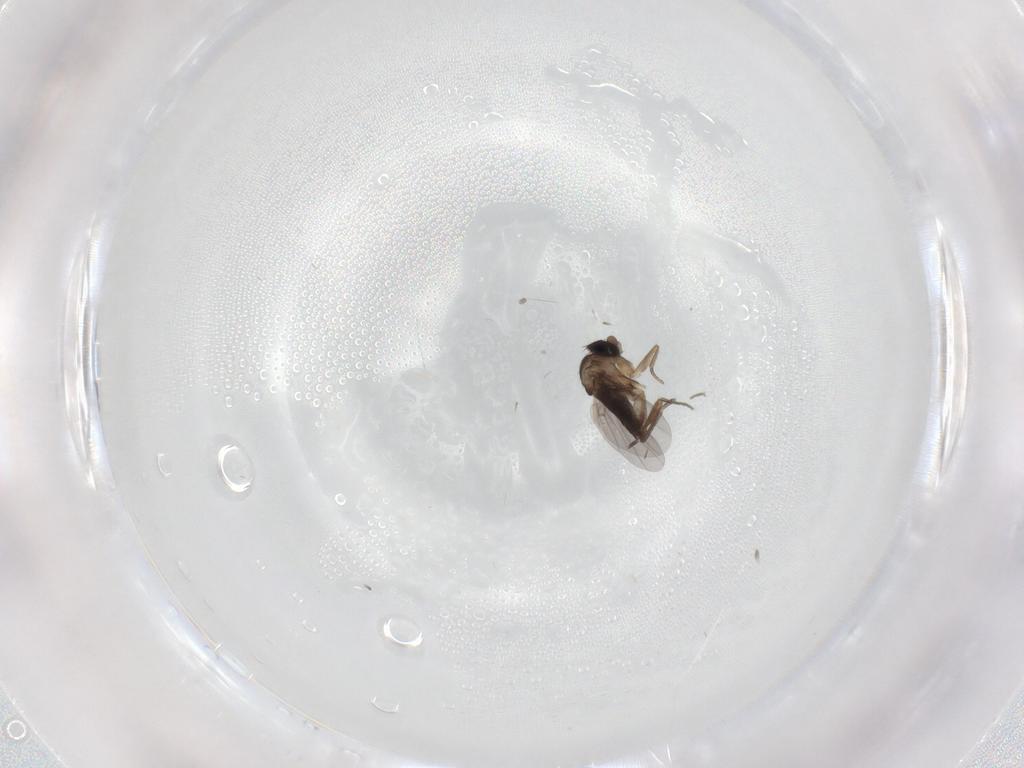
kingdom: Animalia
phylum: Arthropoda
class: Insecta
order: Diptera
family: Phoridae
